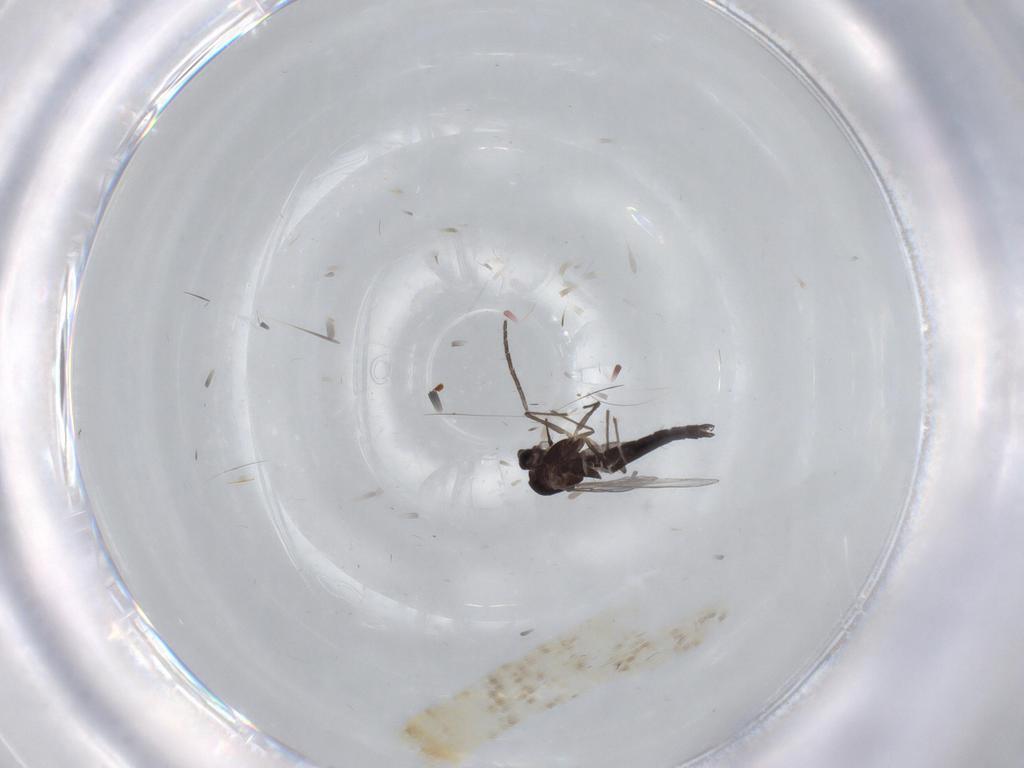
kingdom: Animalia
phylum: Arthropoda
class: Insecta
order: Diptera
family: Chironomidae
